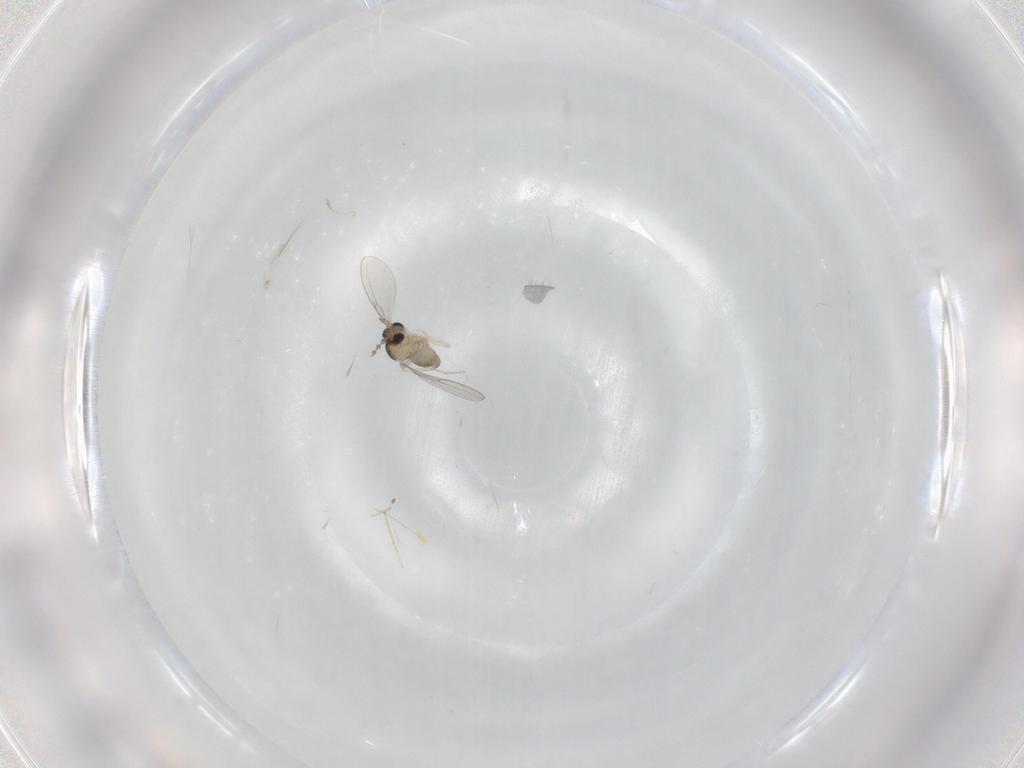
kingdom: Animalia
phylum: Arthropoda
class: Insecta
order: Diptera
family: Chironomidae
